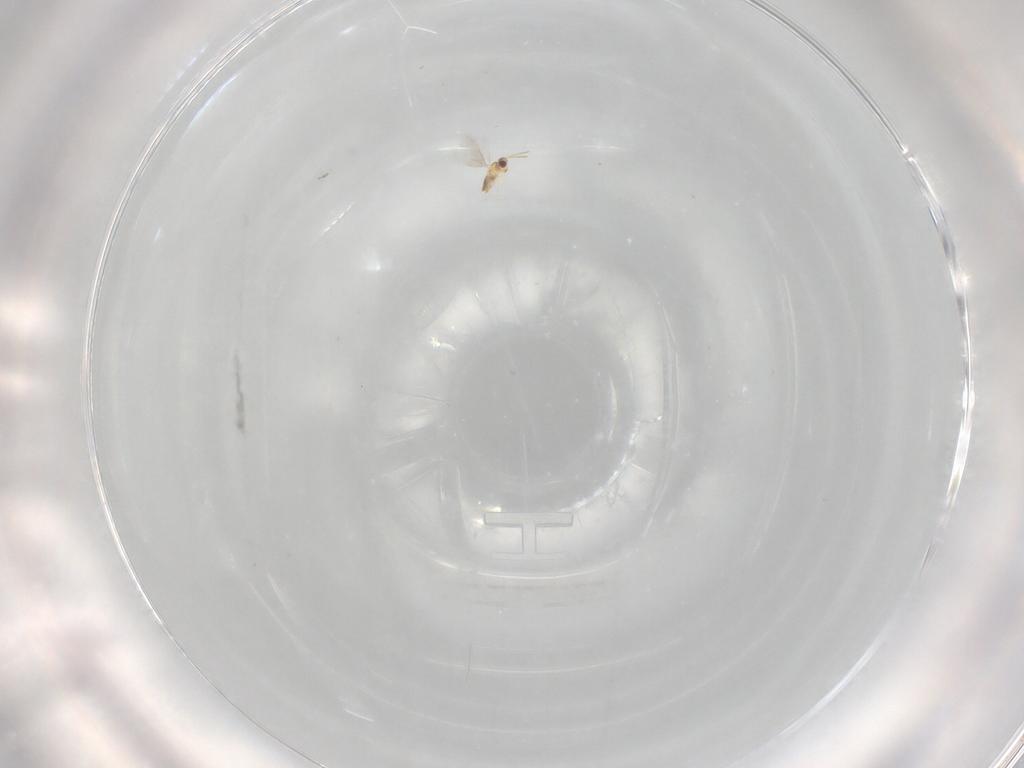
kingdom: Animalia
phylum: Arthropoda
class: Insecta
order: Hymenoptera
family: Aphelinidae
